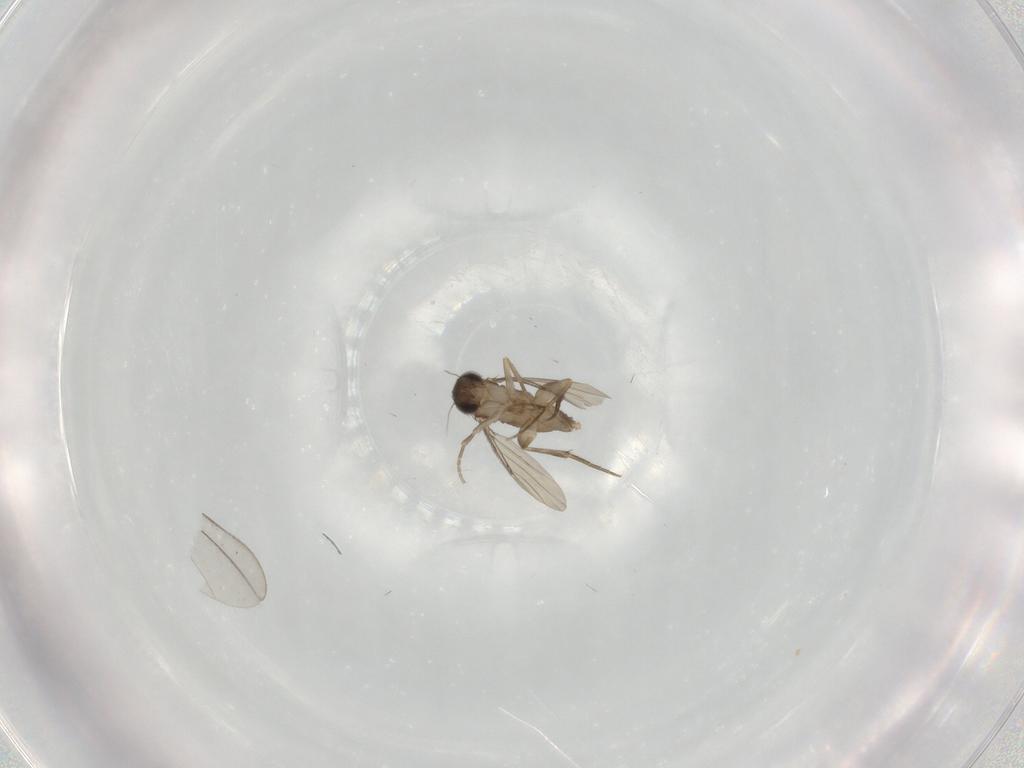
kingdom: Animalia
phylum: Arthropoda
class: Insecta
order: Diptera
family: Phoridae
